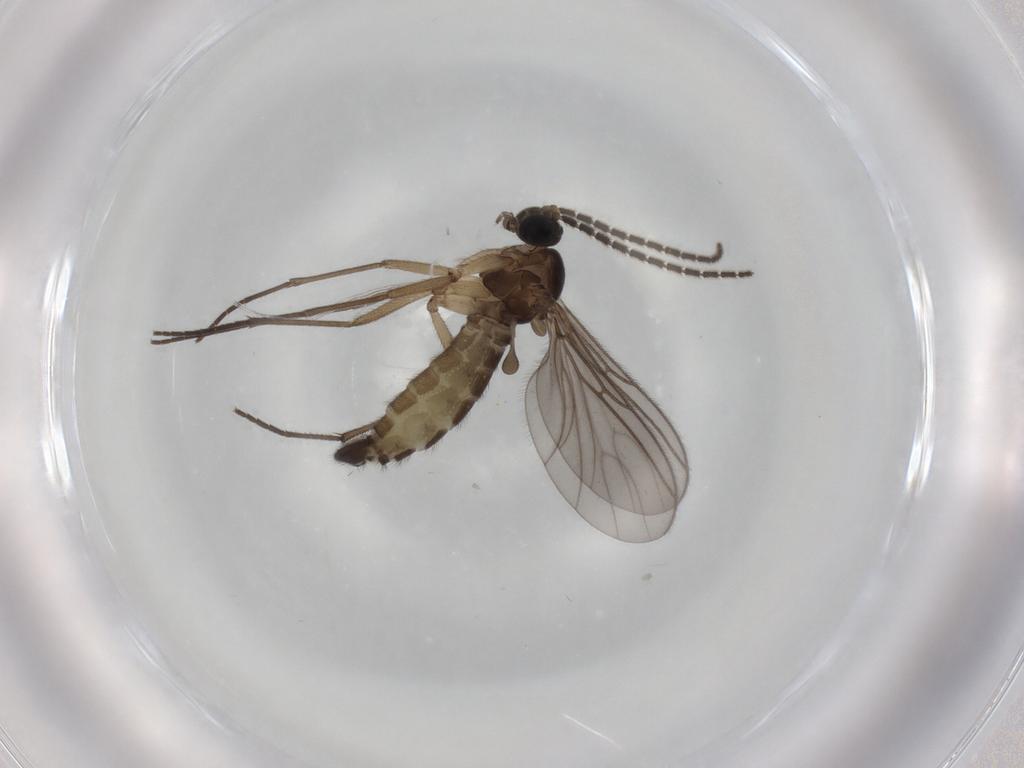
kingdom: Animalia
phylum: Arthropoda
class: Insecta
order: Diptera
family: Sciaridae
